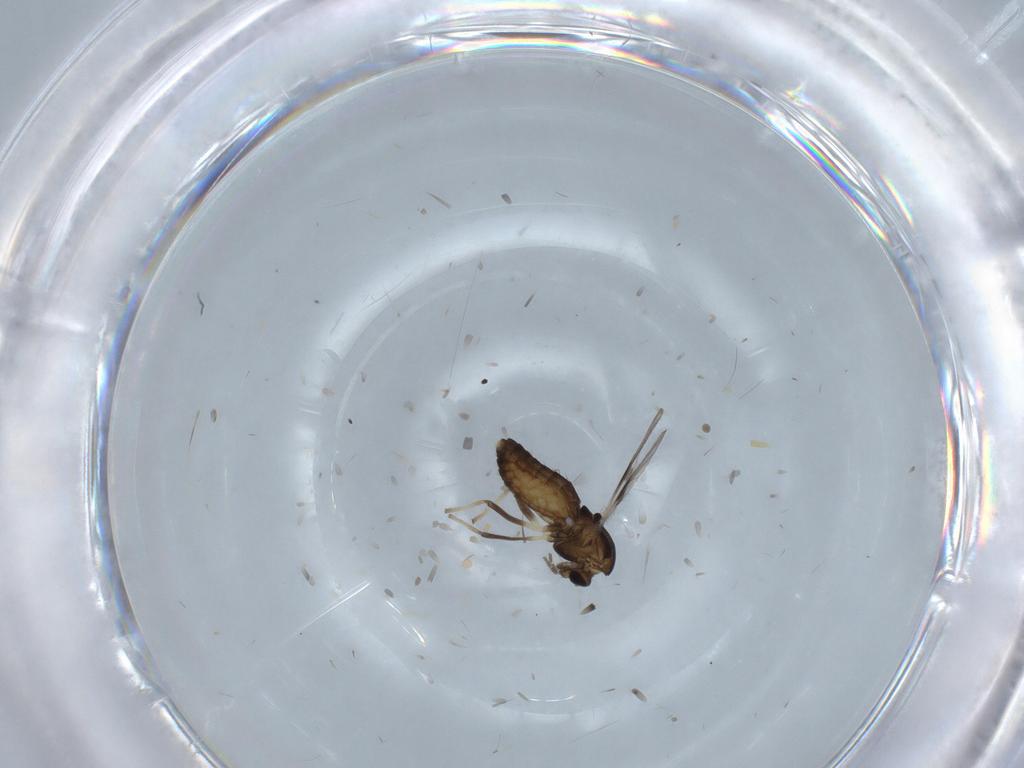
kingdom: Animalia
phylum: Arthropoda
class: Insecta
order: Diptera
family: Chironomidae
